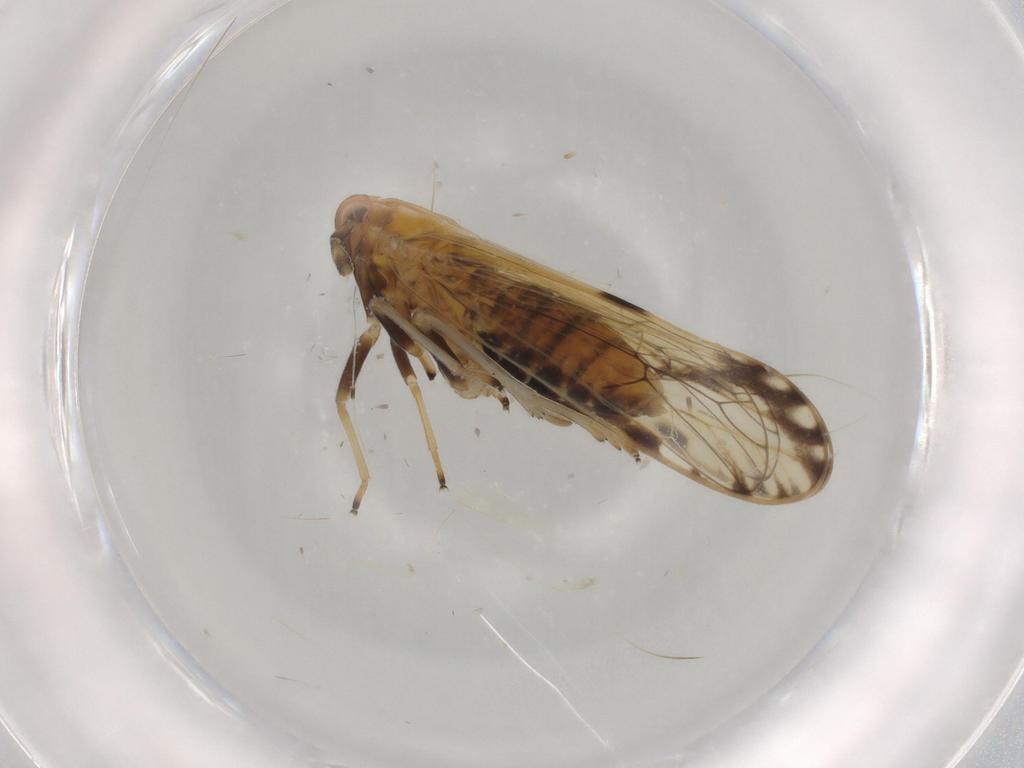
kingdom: Animalia
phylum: Arthropoda
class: Insecta
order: Hemiptera
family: Delphacidae
